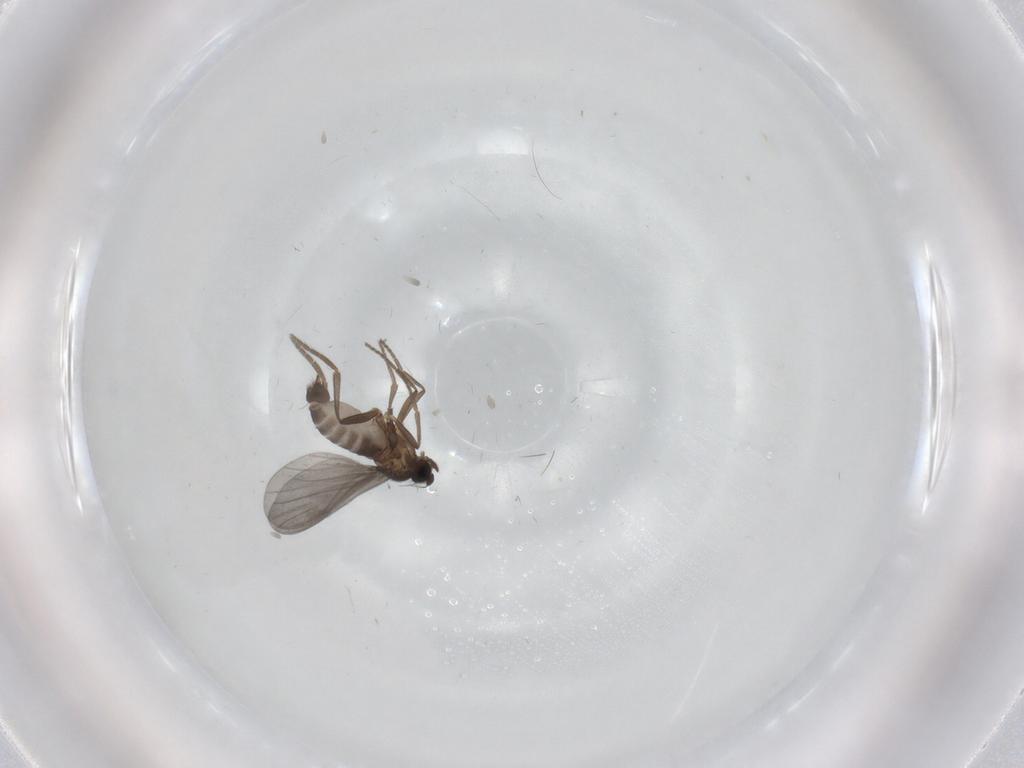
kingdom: Animalia
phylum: Arthropoda
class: Insecta
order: Diptera
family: Phoridae
